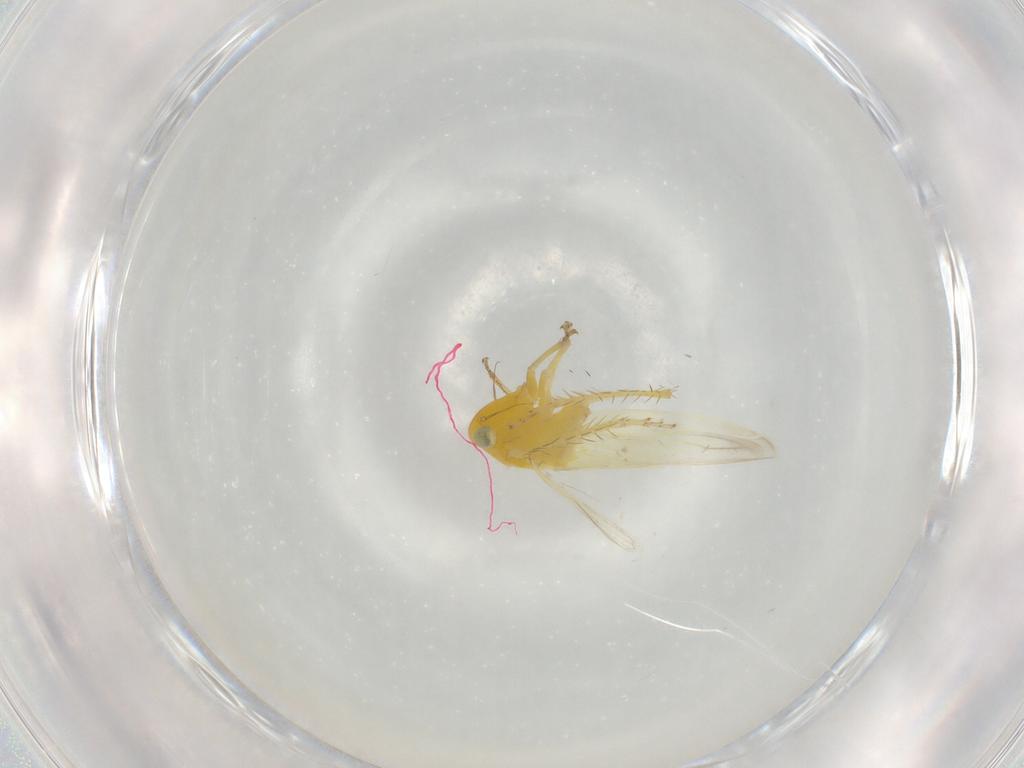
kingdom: Animalia
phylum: Arthropoda
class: Insecta
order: Hemiptera
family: Cicadellidae
